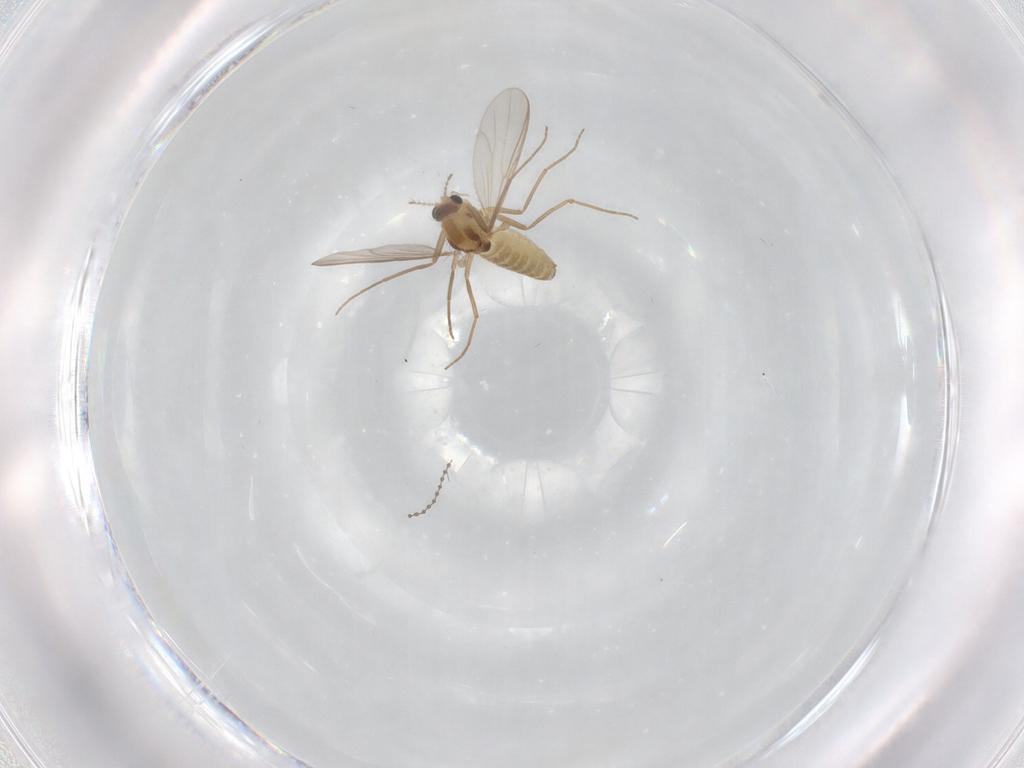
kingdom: Animalia
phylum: Arthropoda
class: Insecta
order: Diptera
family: Chironomidae
